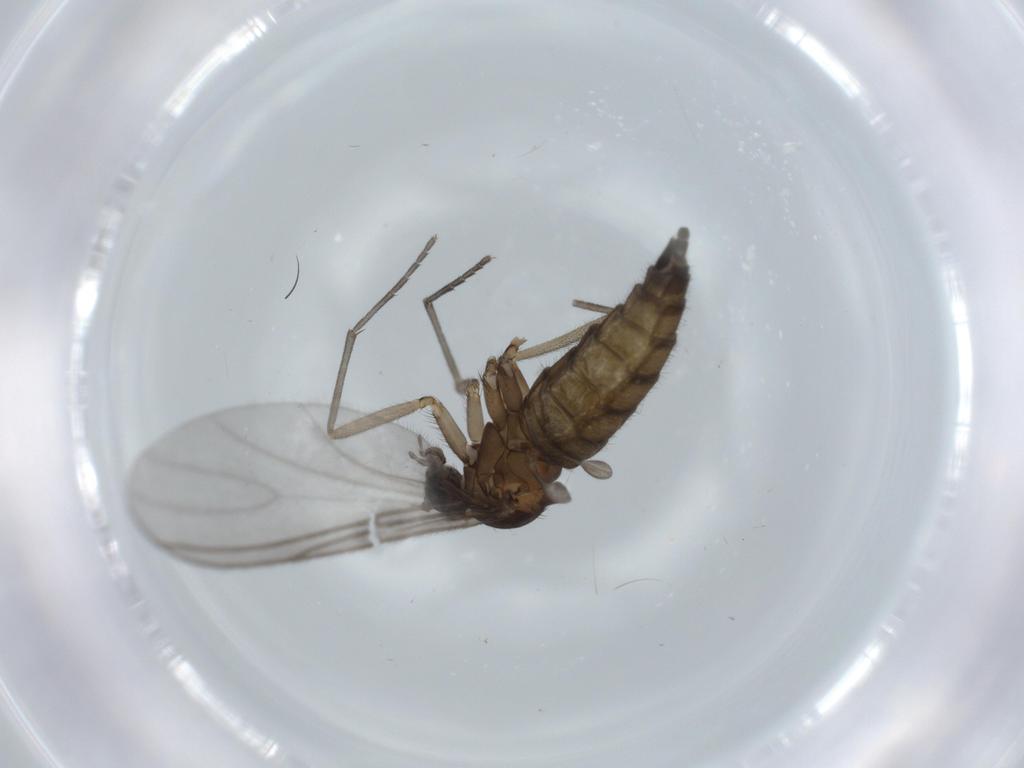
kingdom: Animalia
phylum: Arthropoda
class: Insecta
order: Diptera
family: Sciaridae
